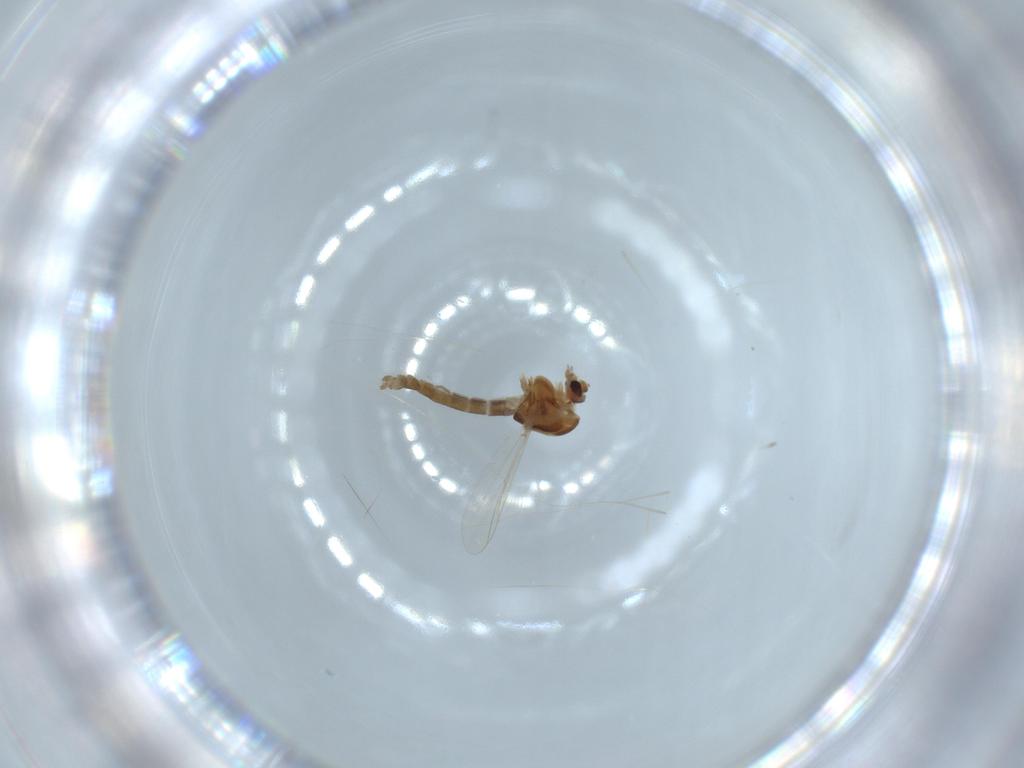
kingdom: Animalia
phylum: Arthropoda
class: Insecta
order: Diptera
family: Chironomidae
